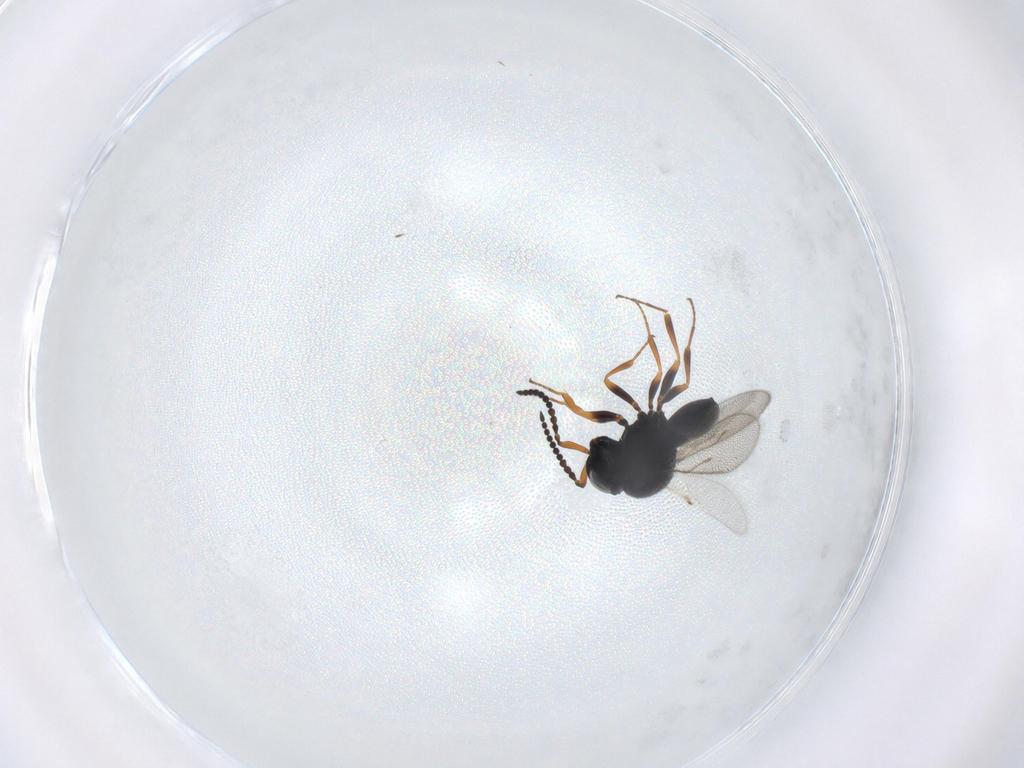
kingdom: Animalia
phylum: Arthropoda
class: Insecta
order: Hymenoptera
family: Scelionidae
